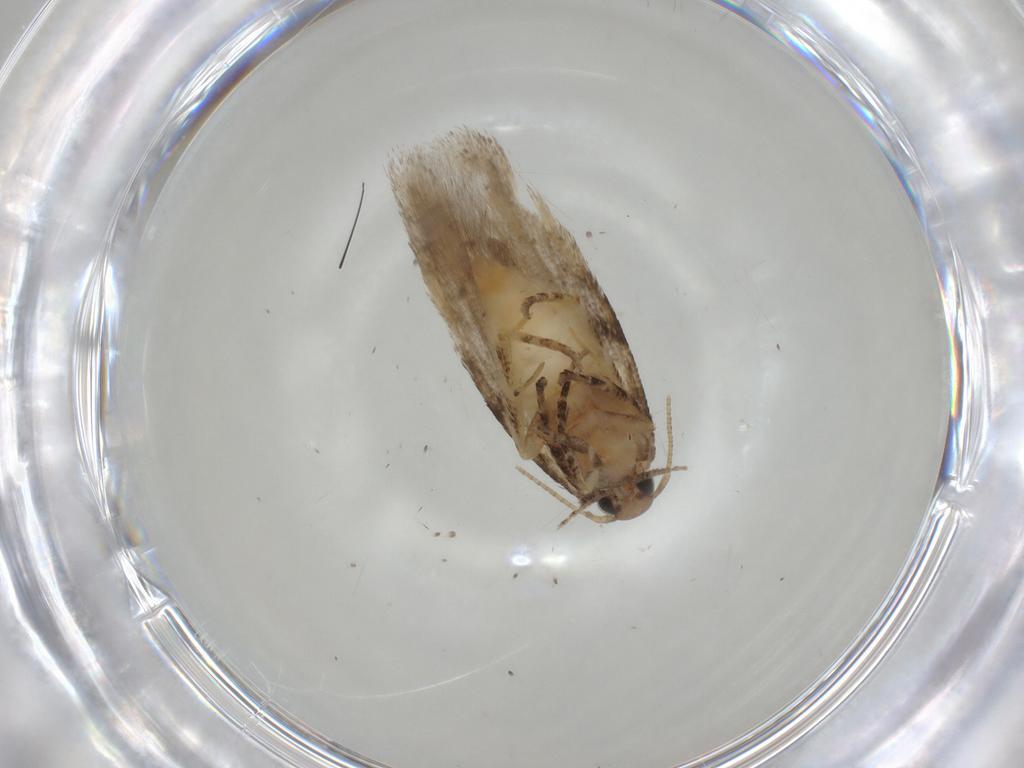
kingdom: Animalia
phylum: Arthropoda
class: Insecta
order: Lepidoptera
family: Gelechiidae
